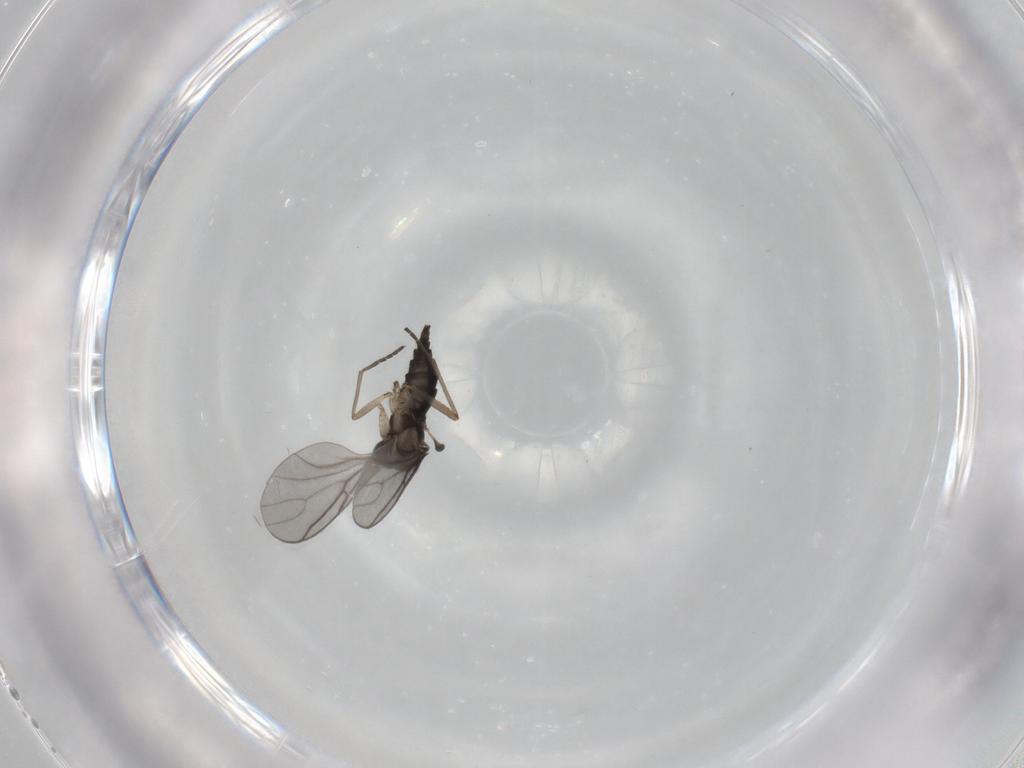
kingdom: Animalia
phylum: Arthropoda
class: Insecta
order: Diptera
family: Sciaridae
